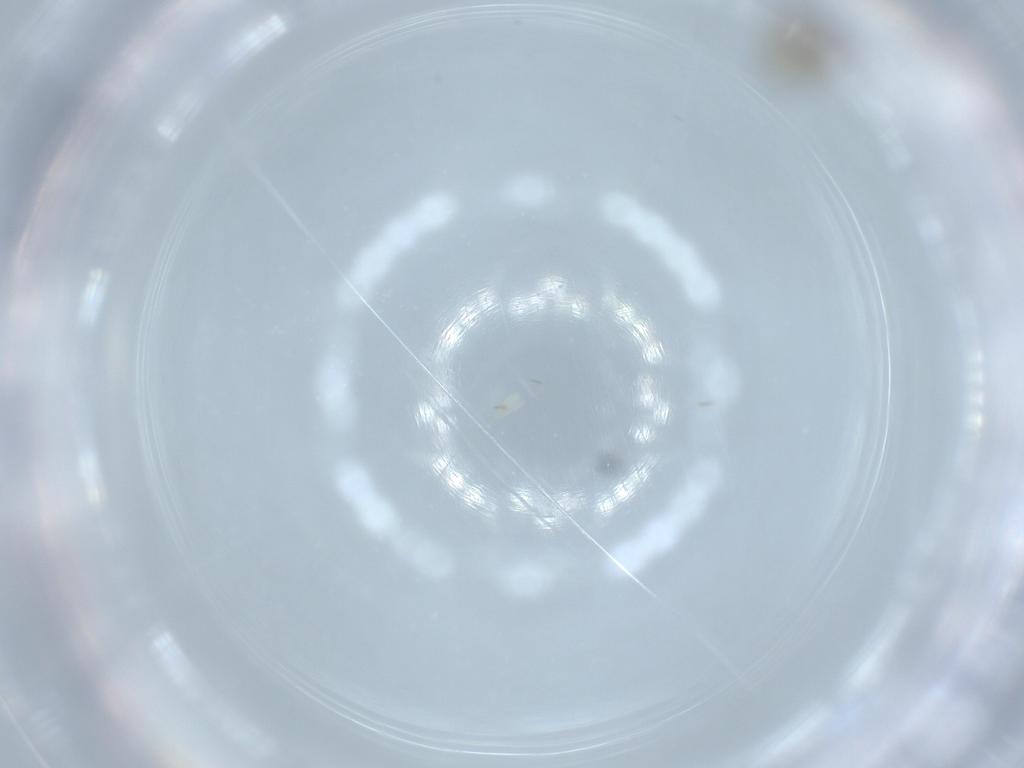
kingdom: Animalia
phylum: Arthropoda
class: Insecta
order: Diptera
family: Ceratopogonidae
